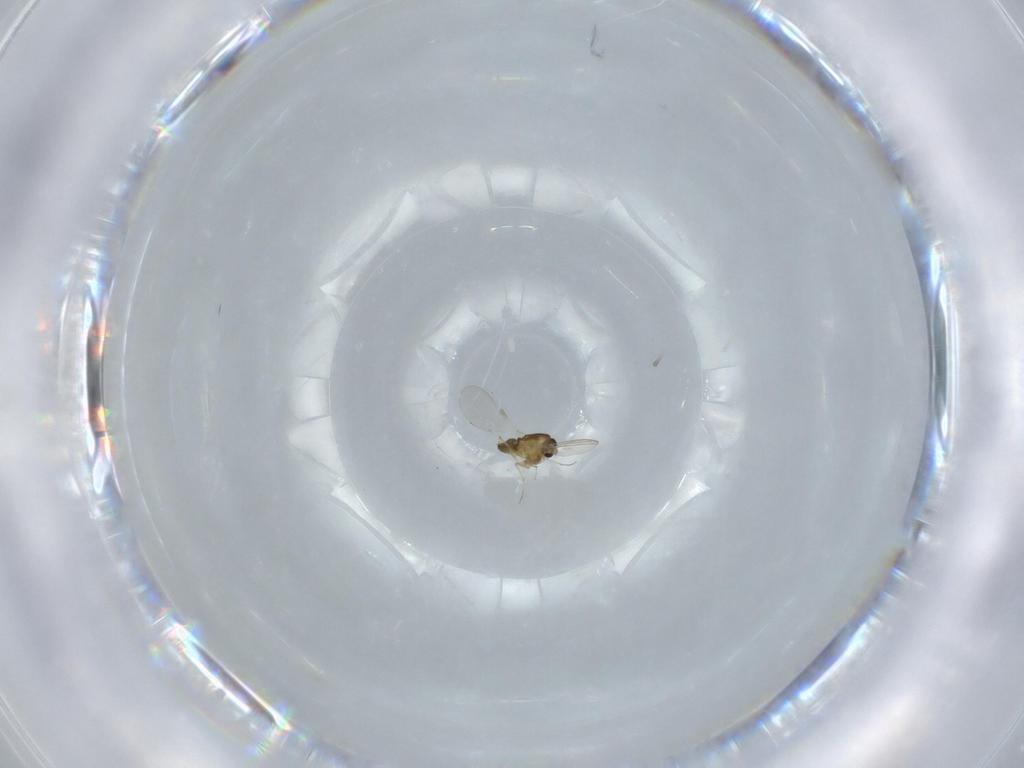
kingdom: Animalia
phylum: Arthropoda
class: Insecta
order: Diptera
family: Chironomidae
